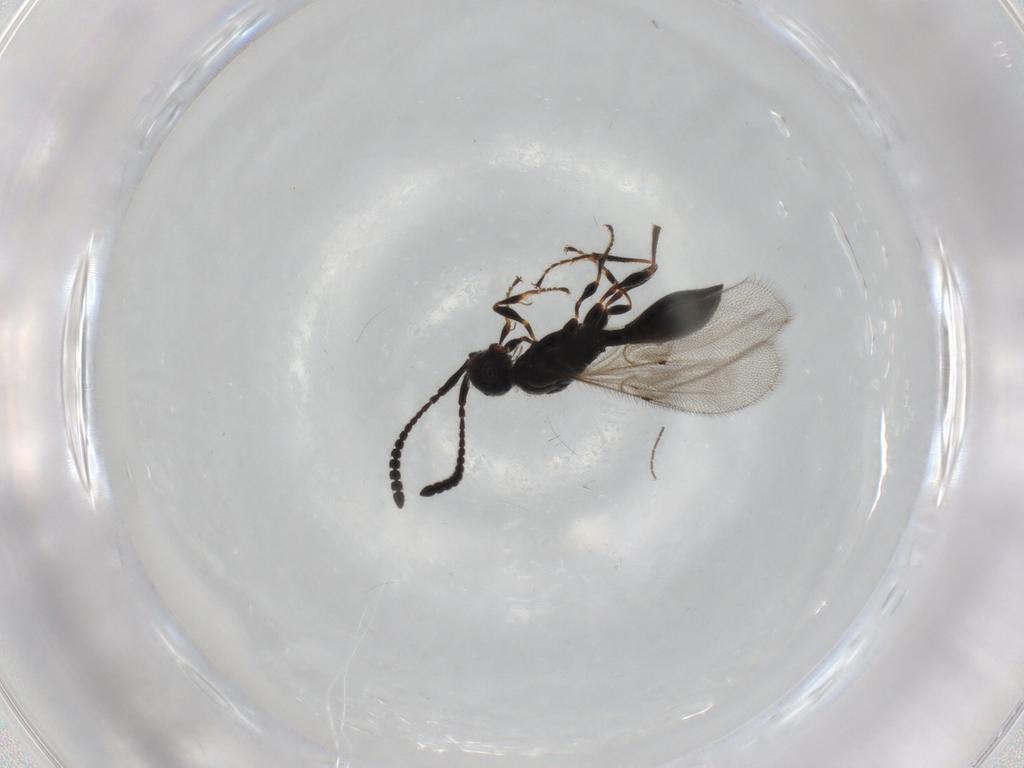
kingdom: Animalia
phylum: Arthropoda
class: Insecta
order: Hymenoptera
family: Diapriidae
